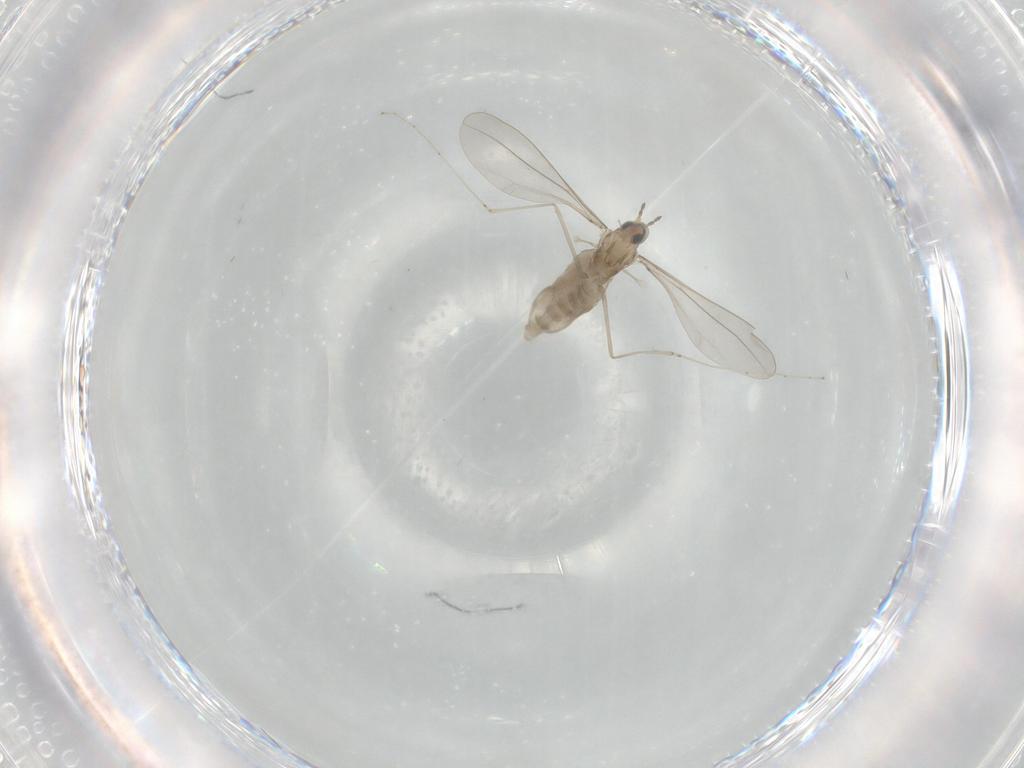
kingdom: Animalia
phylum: Arthropoda
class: Insecta
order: Diptera
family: Cecidomyiidae
